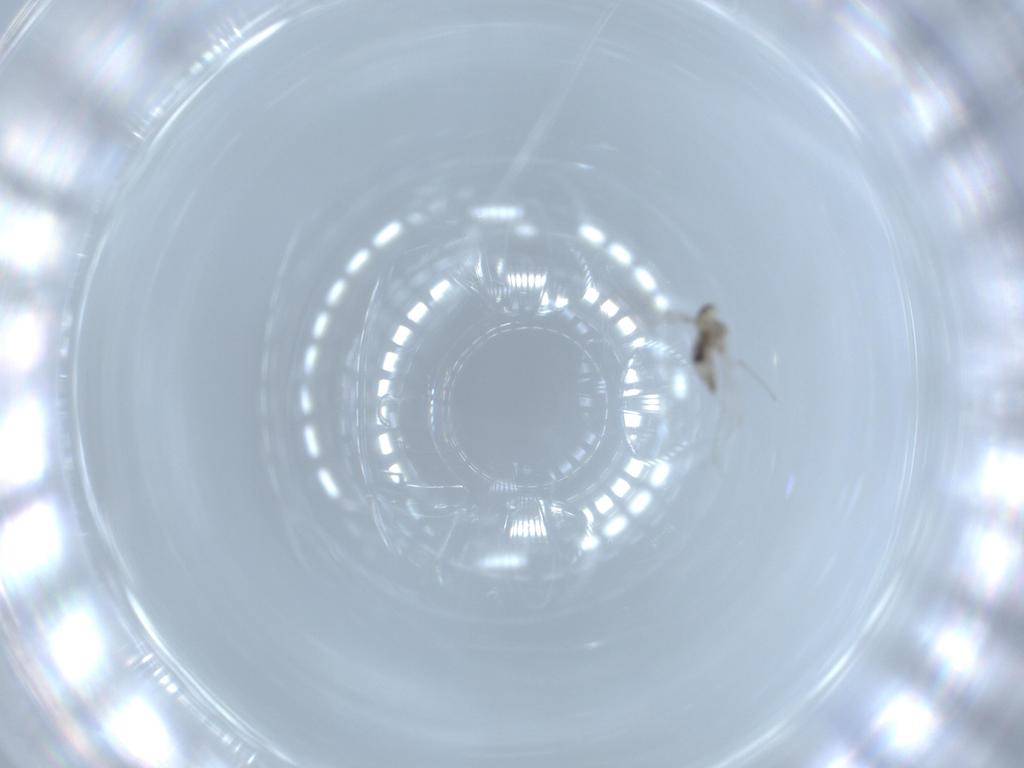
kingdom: Animalia
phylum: Arthropoda
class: Insecta
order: Diptera
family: Cecidomyiidae
